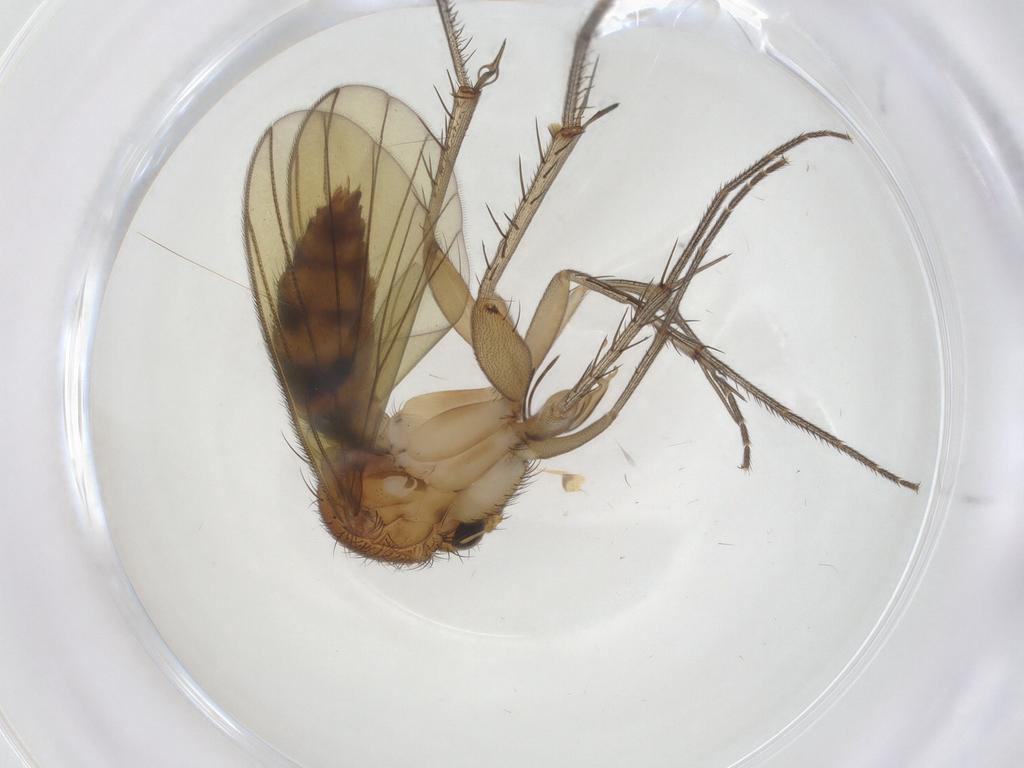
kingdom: Animalia
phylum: Arthropoda
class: Insecta
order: Diptera
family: Mycetophilidae
